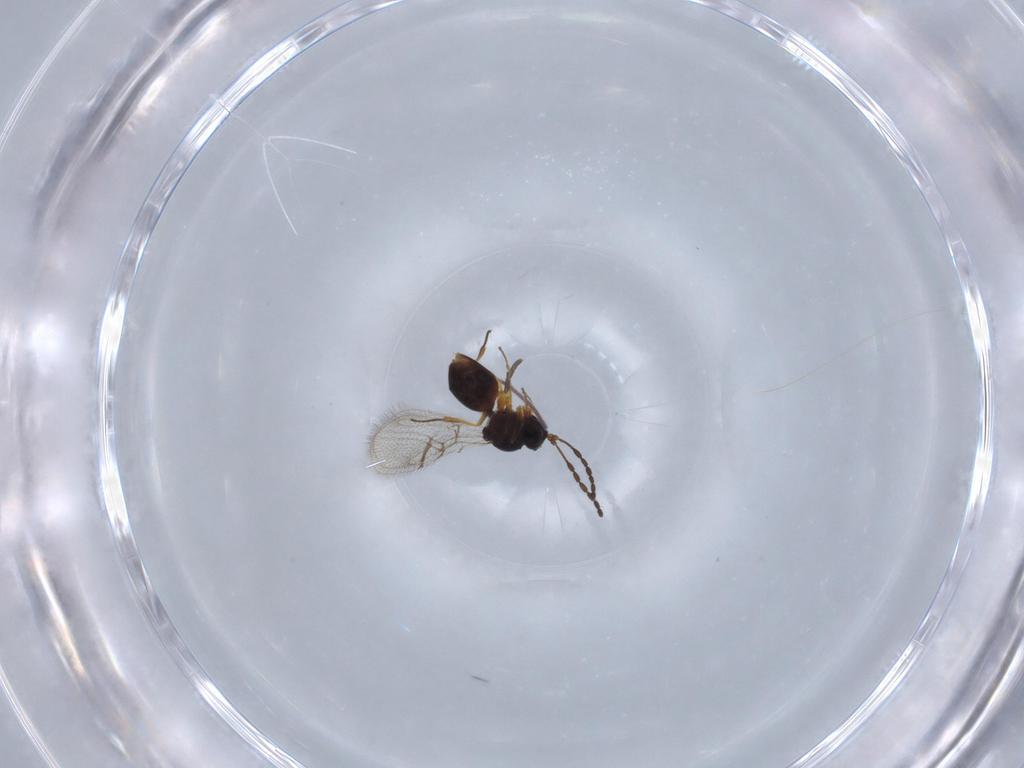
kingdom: Animalia
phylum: Arthropoda
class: Insecta
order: Hymenoptera
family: Figitidae
